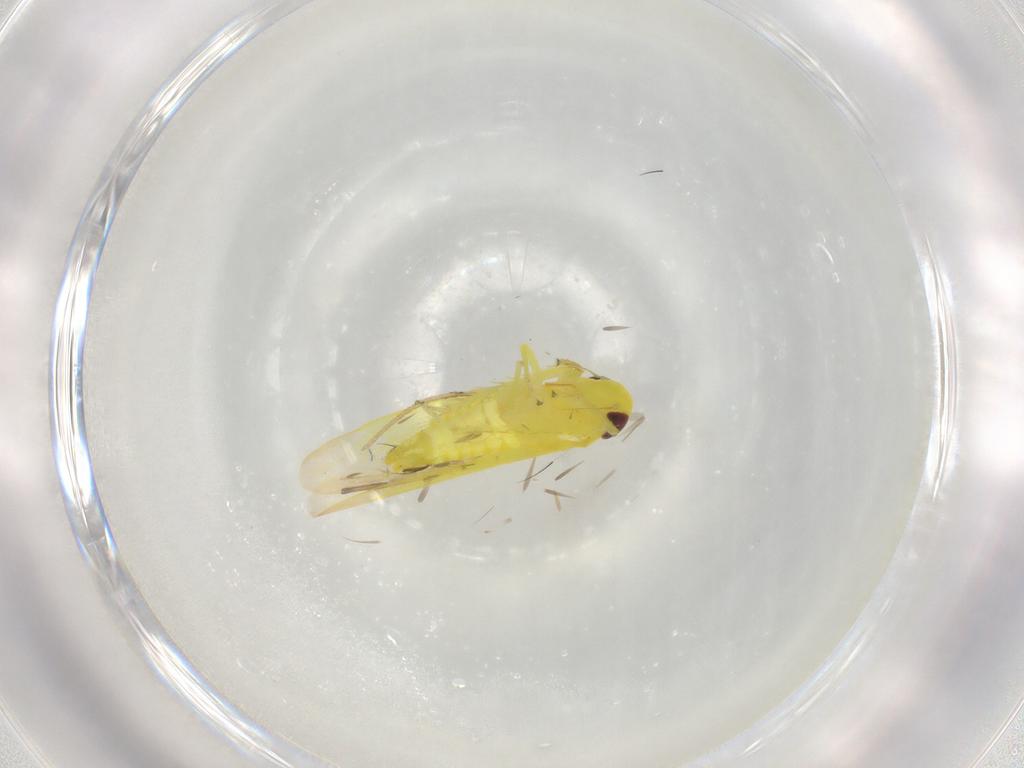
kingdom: Animalia
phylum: Arthropoda
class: Insecta
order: Hemiptera
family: Cicadellidae
